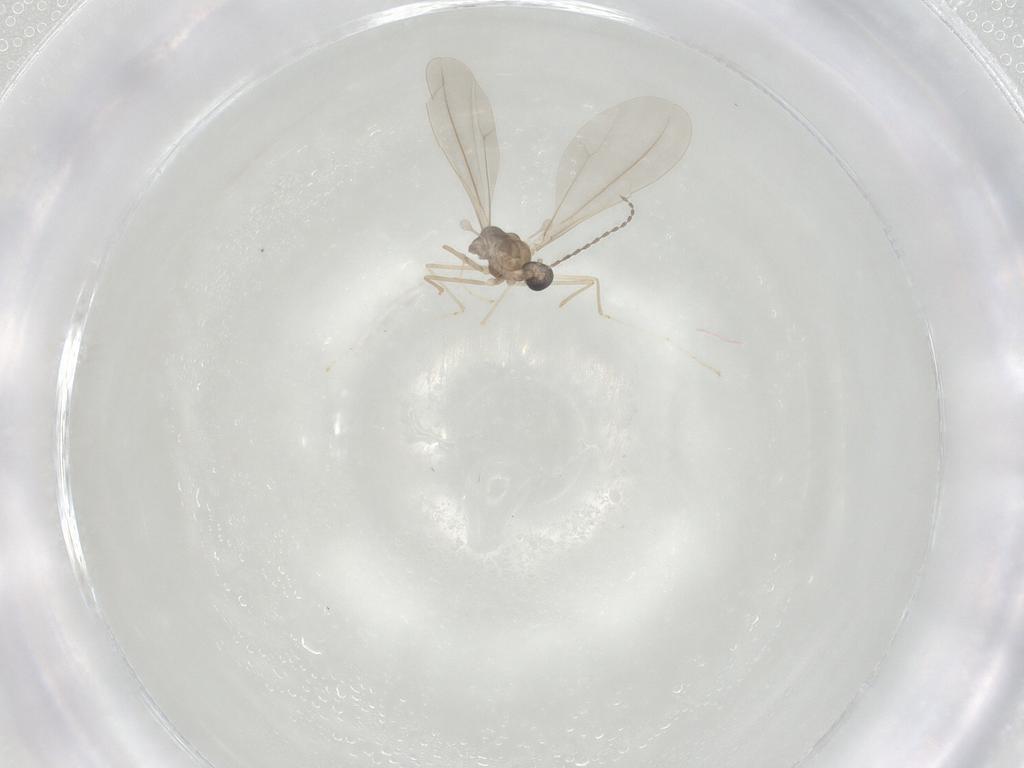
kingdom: Animalia
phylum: Arthropoda
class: Insecta
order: Diptera
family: Cecidomyiidae
